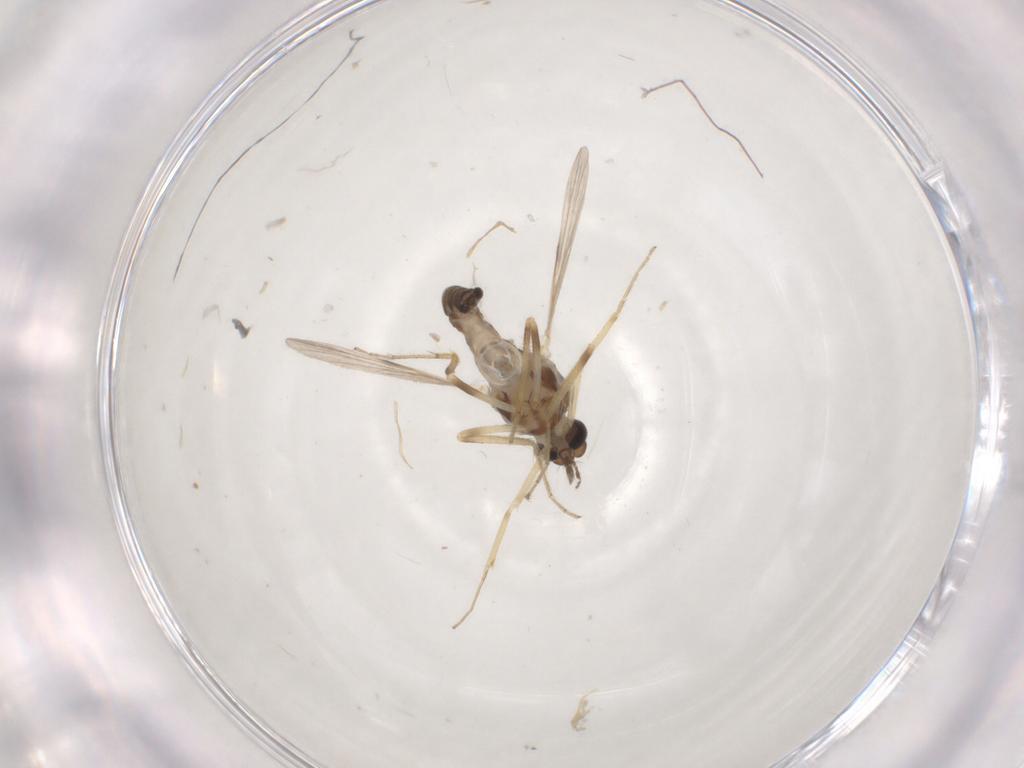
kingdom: Animalia
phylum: Arthropoda
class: Insecta
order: Diptera
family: Ceratopogonidae
